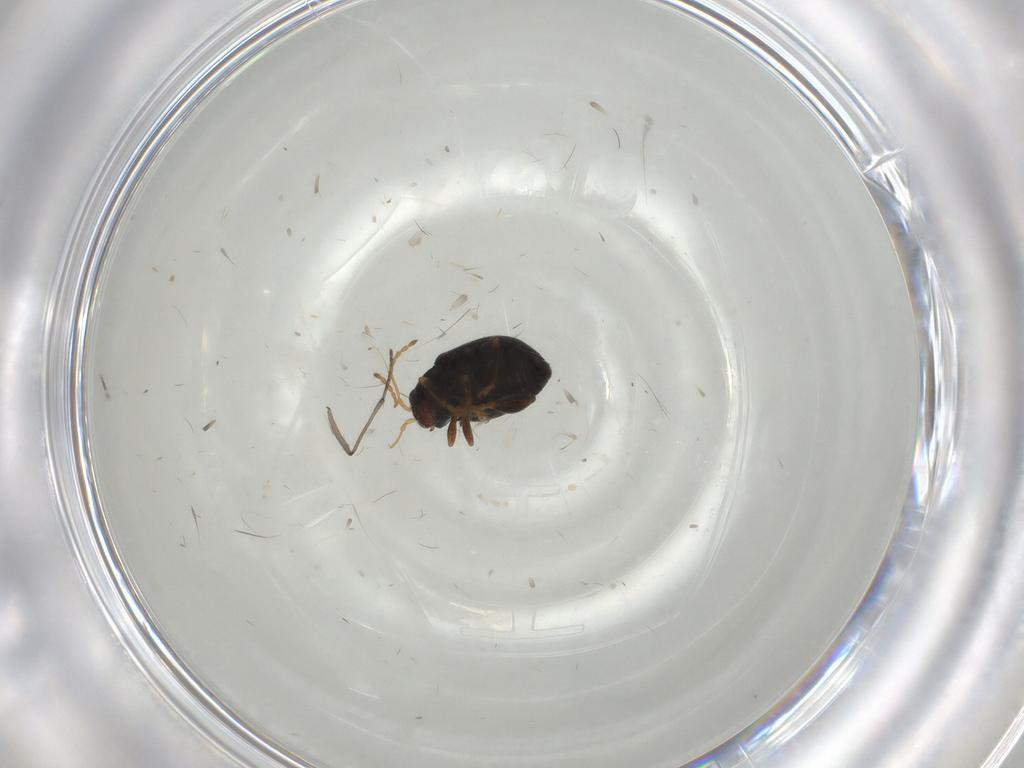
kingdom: Animalia
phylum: Arthropoda
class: Insecta
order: Coleoptera
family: Chrysomelidae
